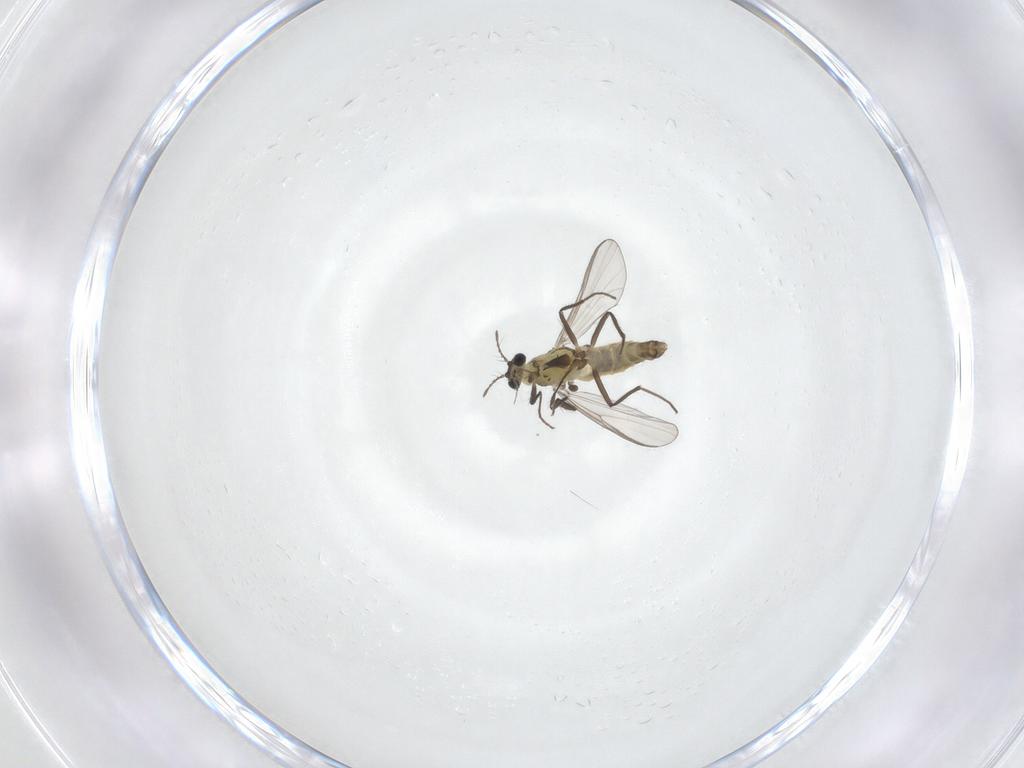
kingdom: Animalia
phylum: Arthropoda
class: Insecta
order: Diptera
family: Chironomidae
